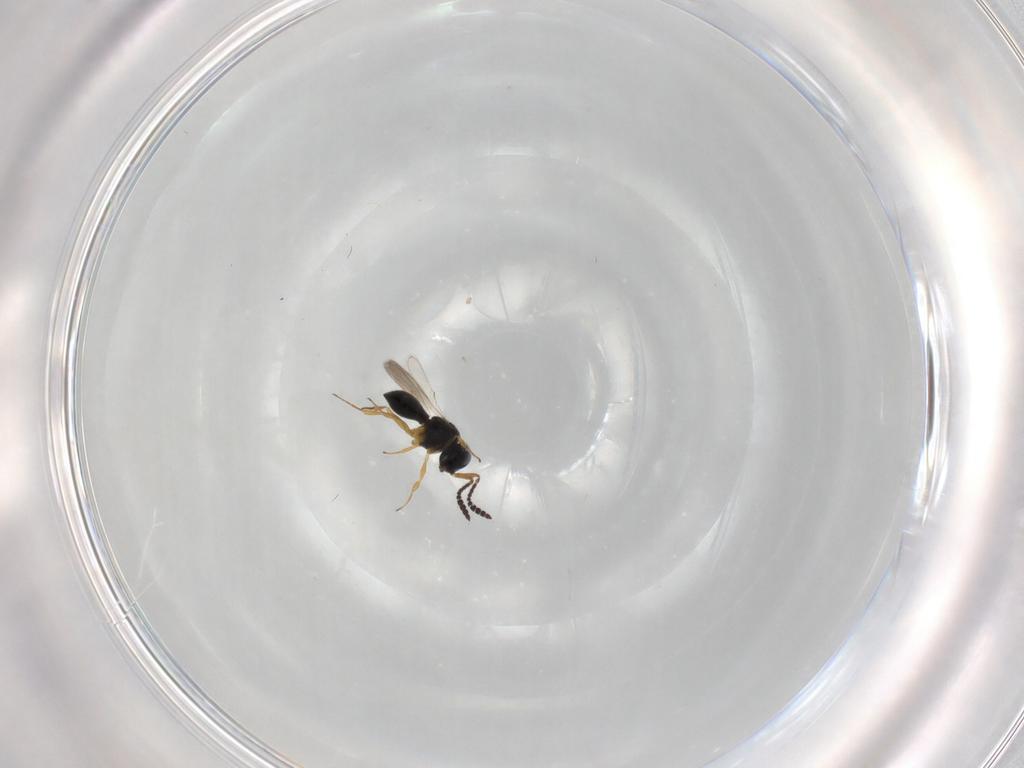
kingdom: Animalia
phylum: Arthropoda
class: Insecta
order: Hymenoptera
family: Scelionidae
